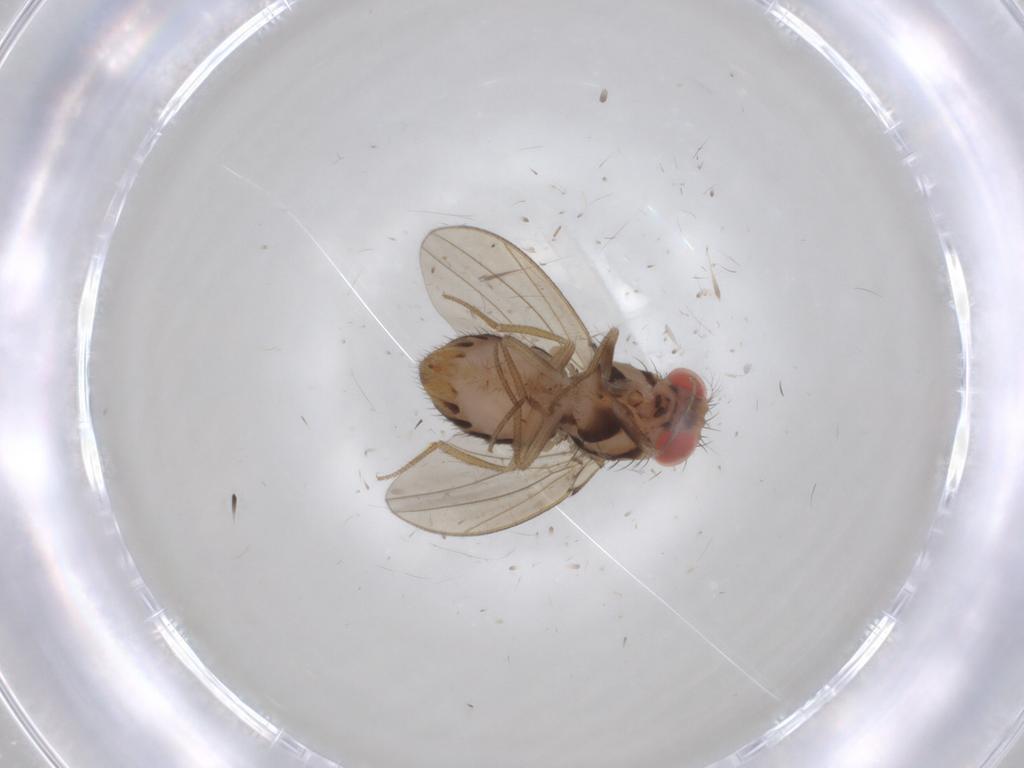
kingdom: Animalia
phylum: Arthropoda
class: Insecta
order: Diptera
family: Drosophilidae
